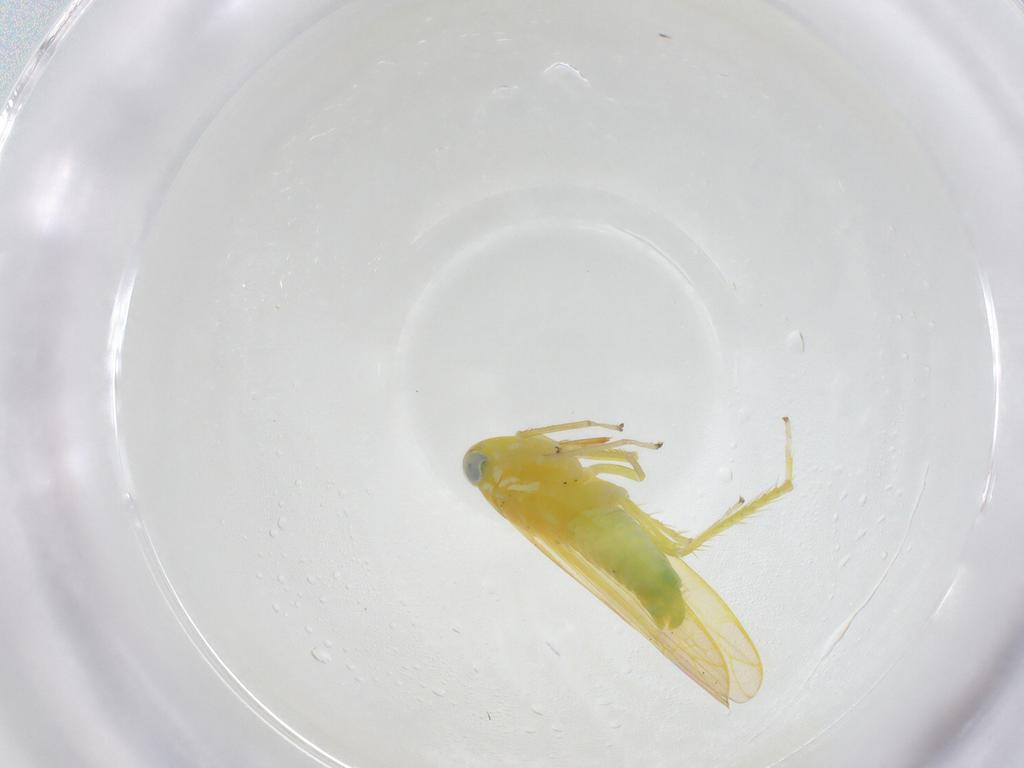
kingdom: Animalia
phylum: Arthropoda
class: Insecta
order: Hemiptera
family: Cicadellidae
